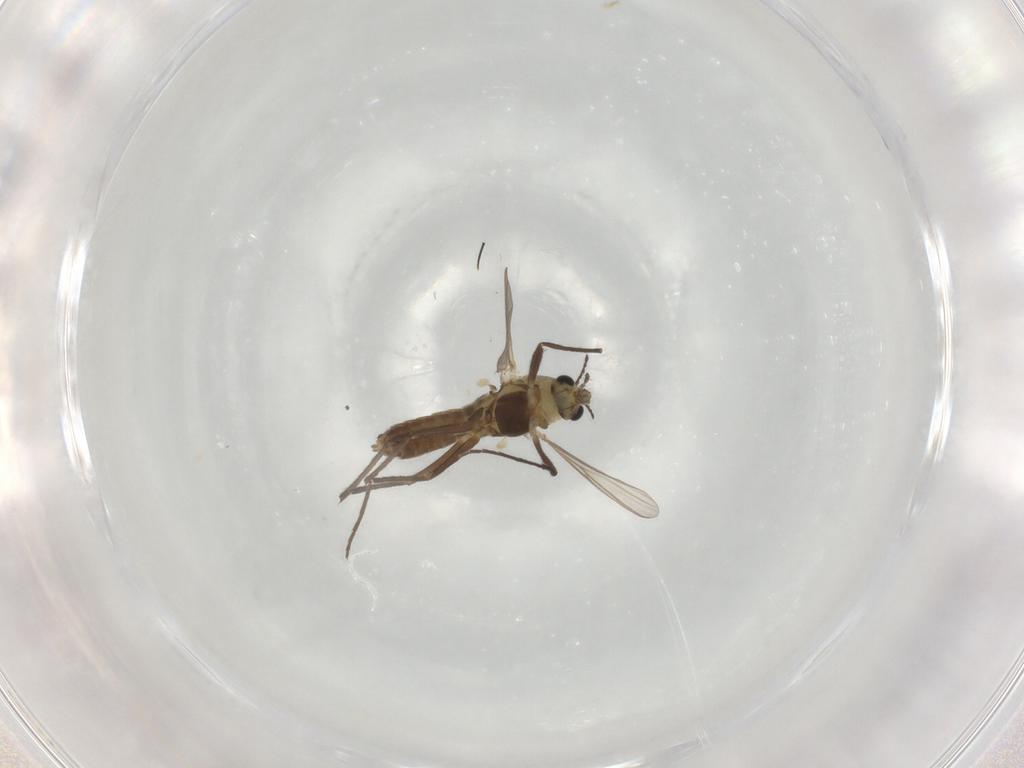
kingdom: Animalia
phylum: Arthropoda
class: Insecta
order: Diptera
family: Chironomidae
